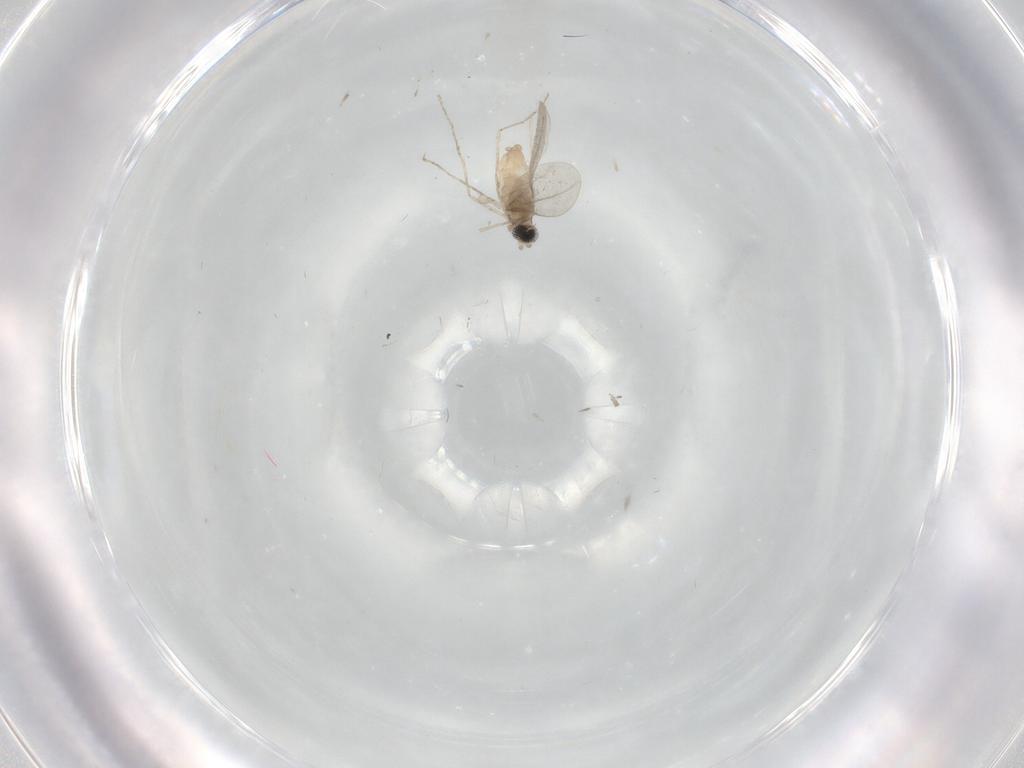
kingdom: Animalia
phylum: Arthropoda
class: Insecta
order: Diptera
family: Cecidomyiidae
